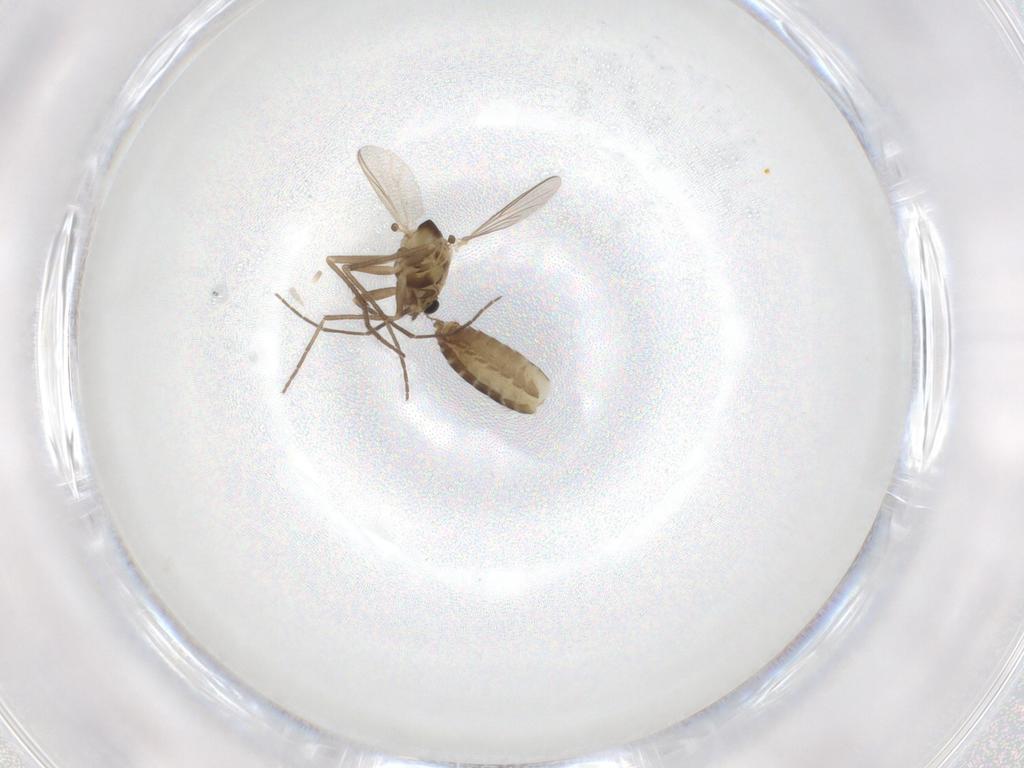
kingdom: Animalia
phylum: Arthropoda
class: Insecta
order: Diptera
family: Chironomidae
